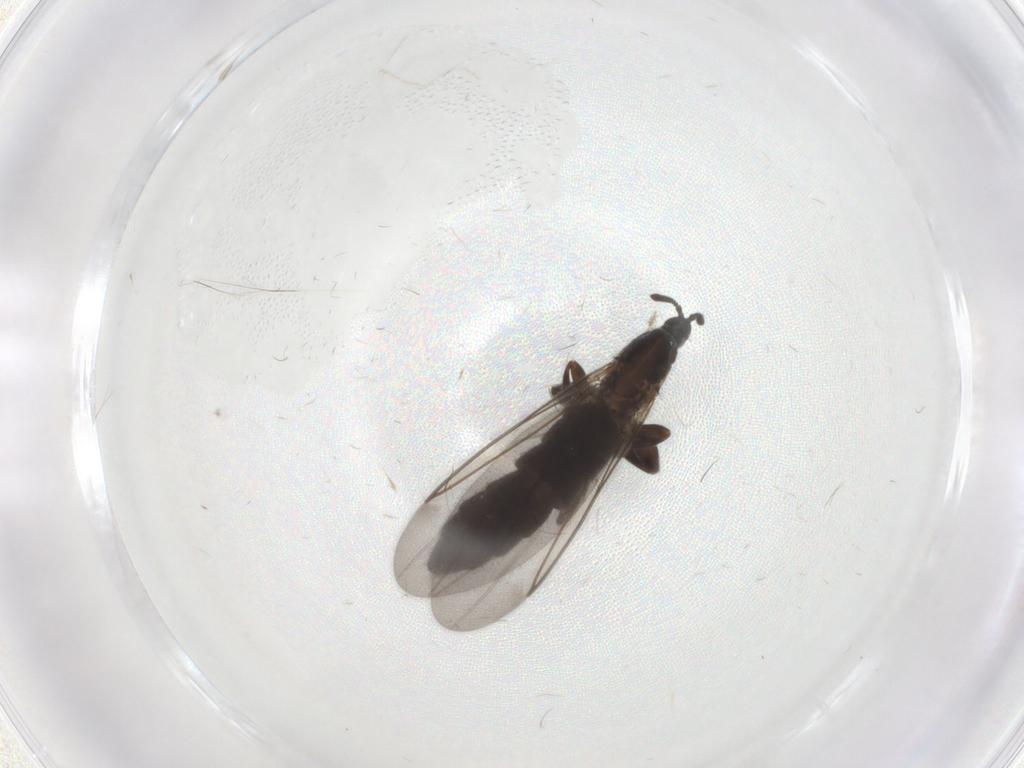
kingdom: Animalia
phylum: Arthropoda
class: Insecta
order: Diptera
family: Scatopsidae
